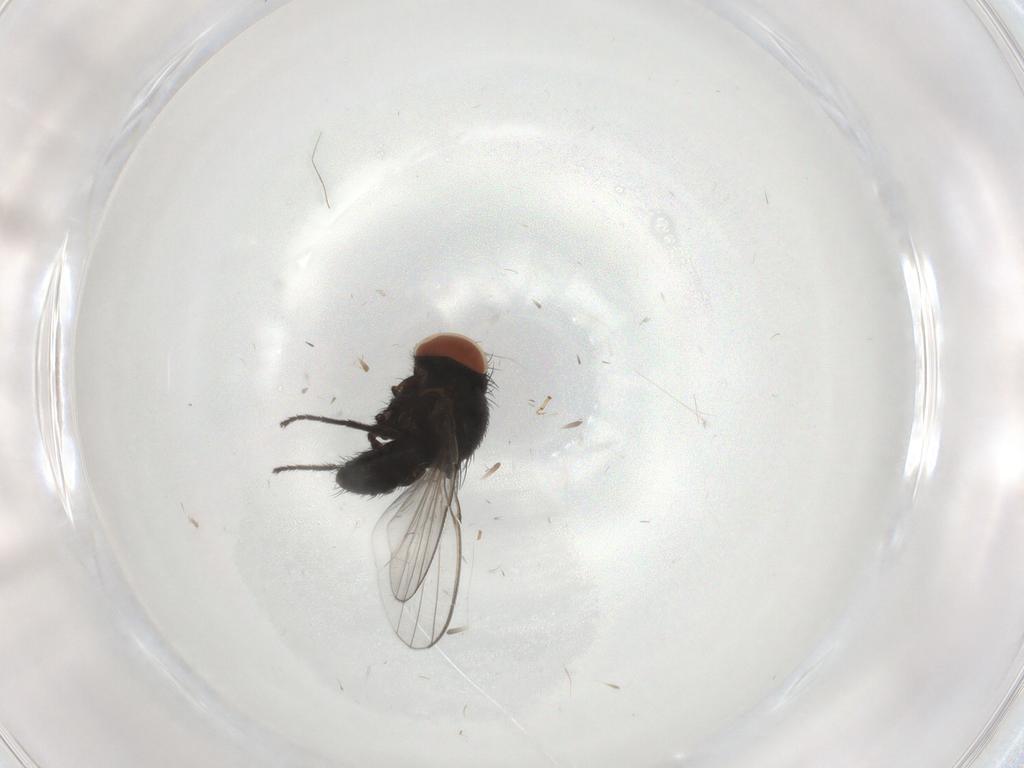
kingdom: Animalia
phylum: Arthropoda
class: Insecta
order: Diptera
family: Milichiidae
